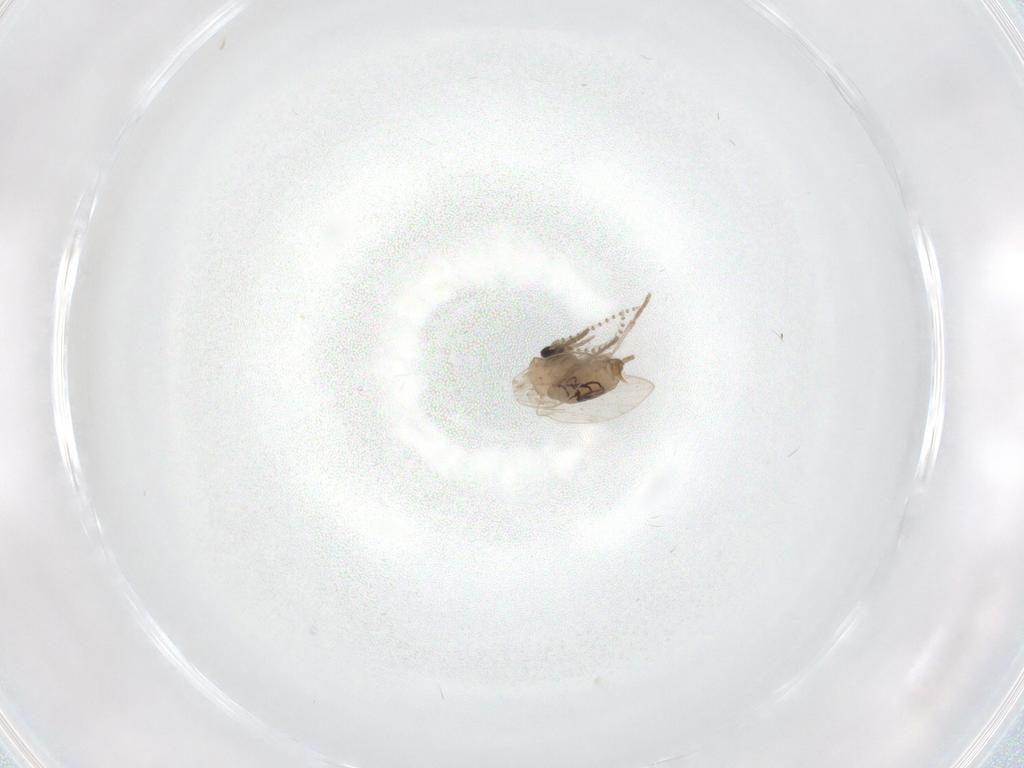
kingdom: Animalia
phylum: Arthropoda
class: Insecta
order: Diptera
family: Psychodidae
